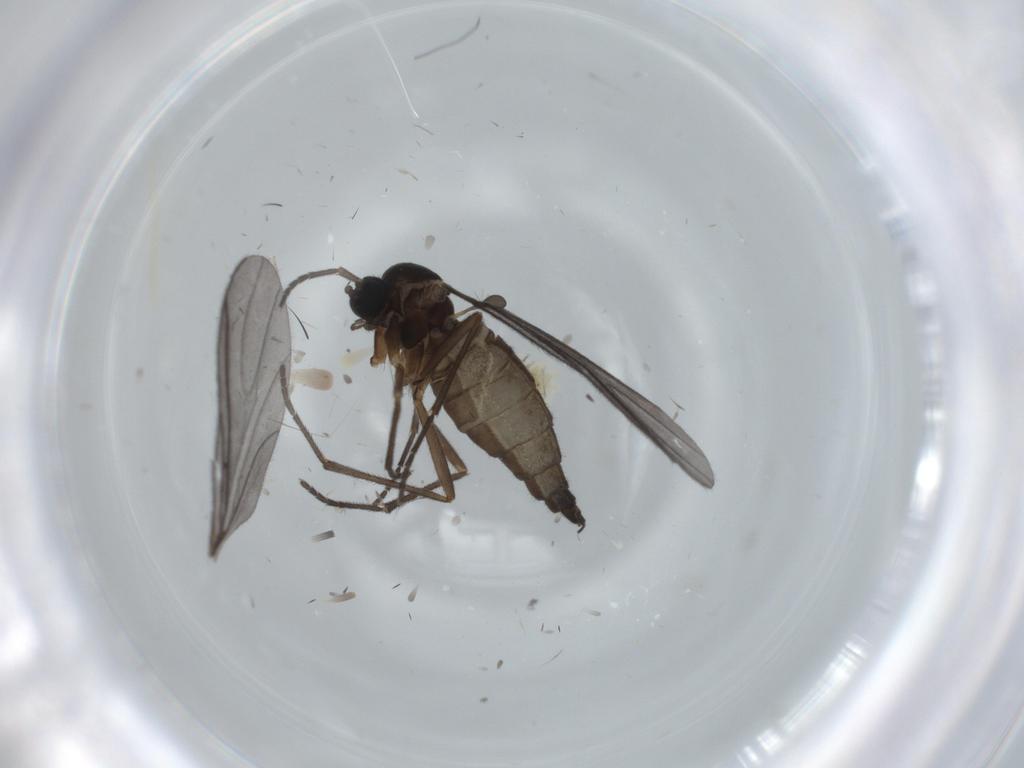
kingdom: Animalia
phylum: Arthropoda
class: Insecta
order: Diptera
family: Sciaridae
